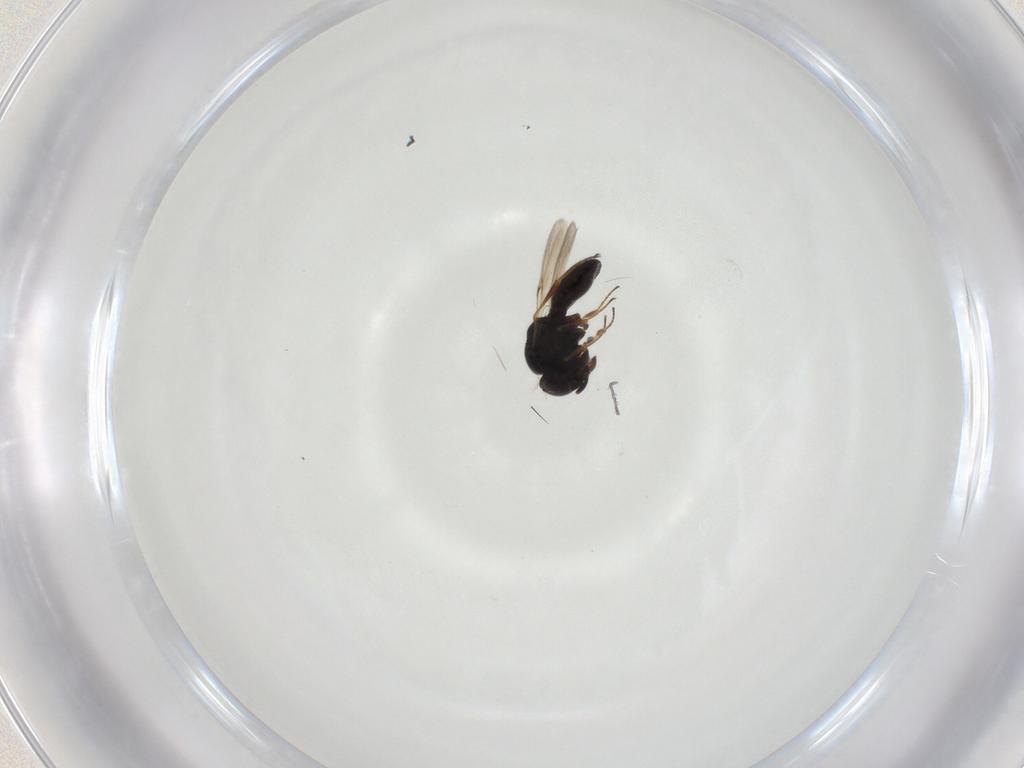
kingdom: Animalia
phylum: Arthropoda
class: Insecta
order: Hymenoptera
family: Scelionidae
